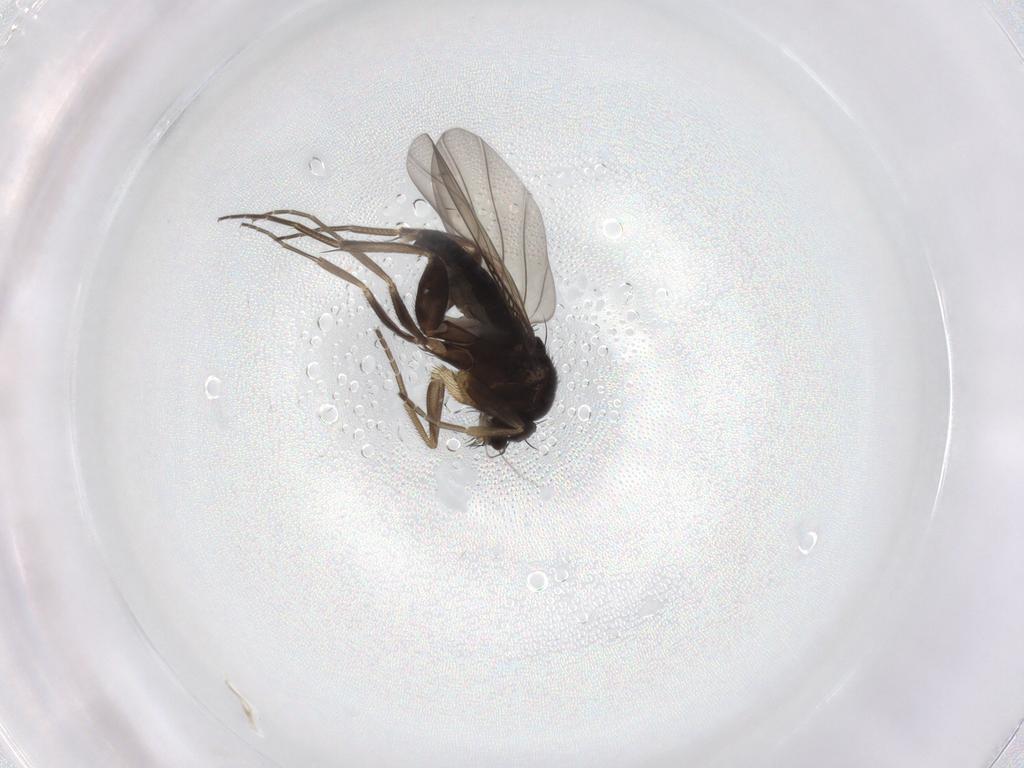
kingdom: Animalia
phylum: Arthropoda
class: Insecta
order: Diptera
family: Phoridae
